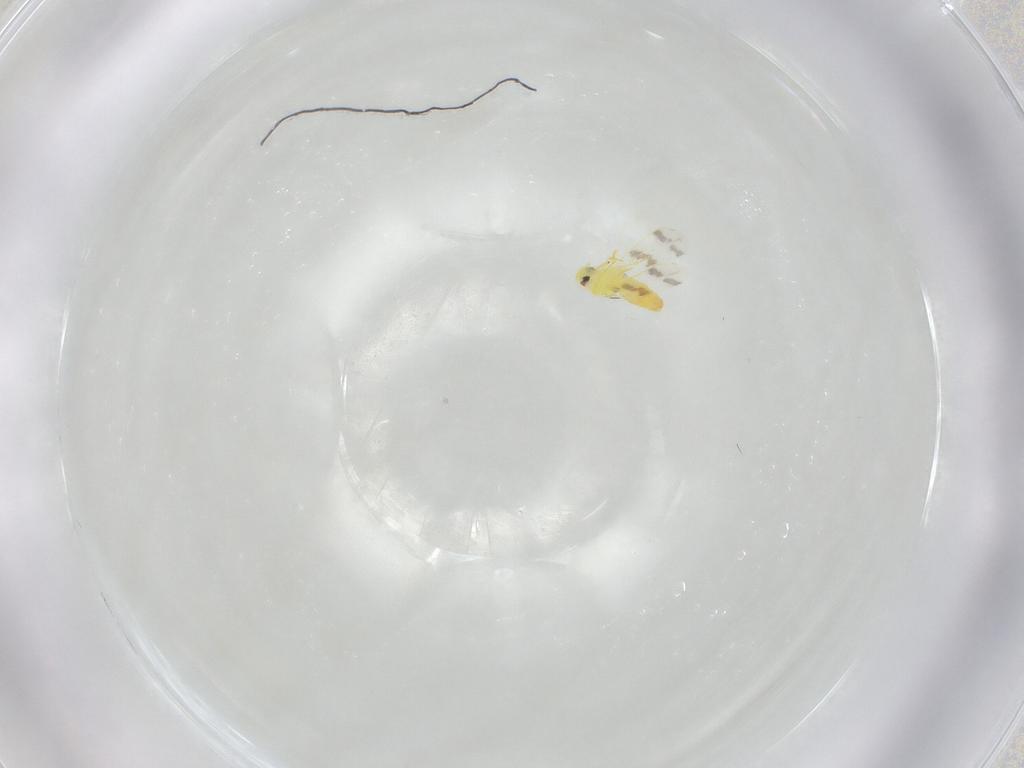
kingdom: Animalia
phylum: Arthropoda
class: Insecta
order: Hemiptera
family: Aleyrodidae
